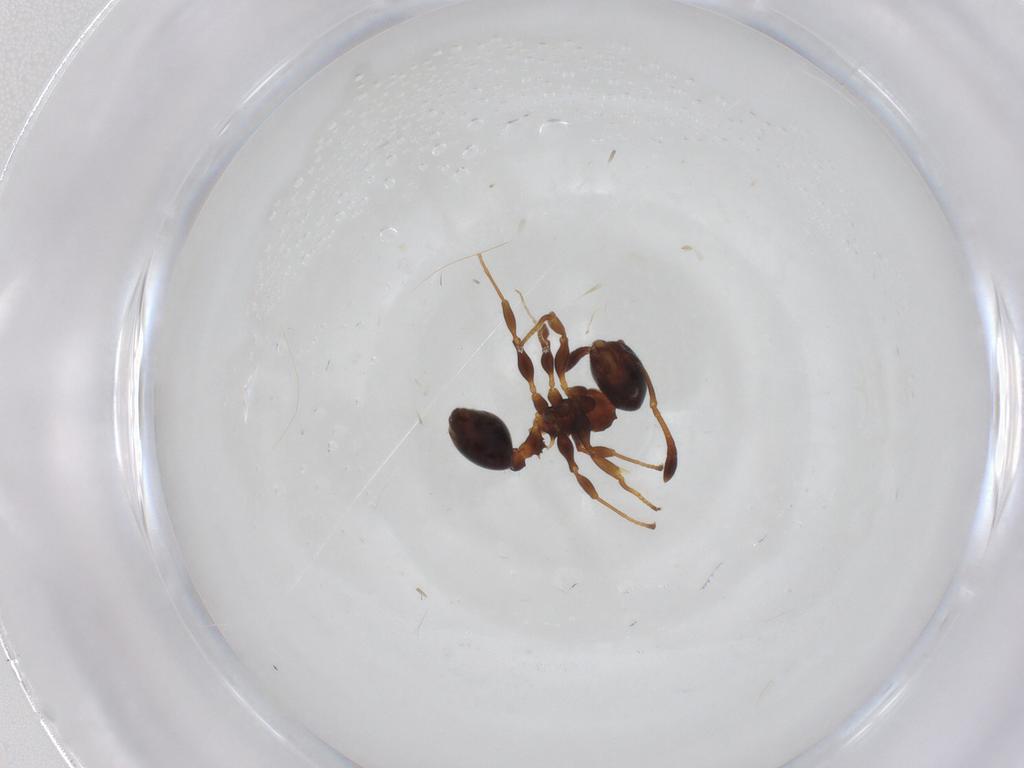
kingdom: Animalia
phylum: Arthropoda
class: Insecta
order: Hymenoptera
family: Formicidae
